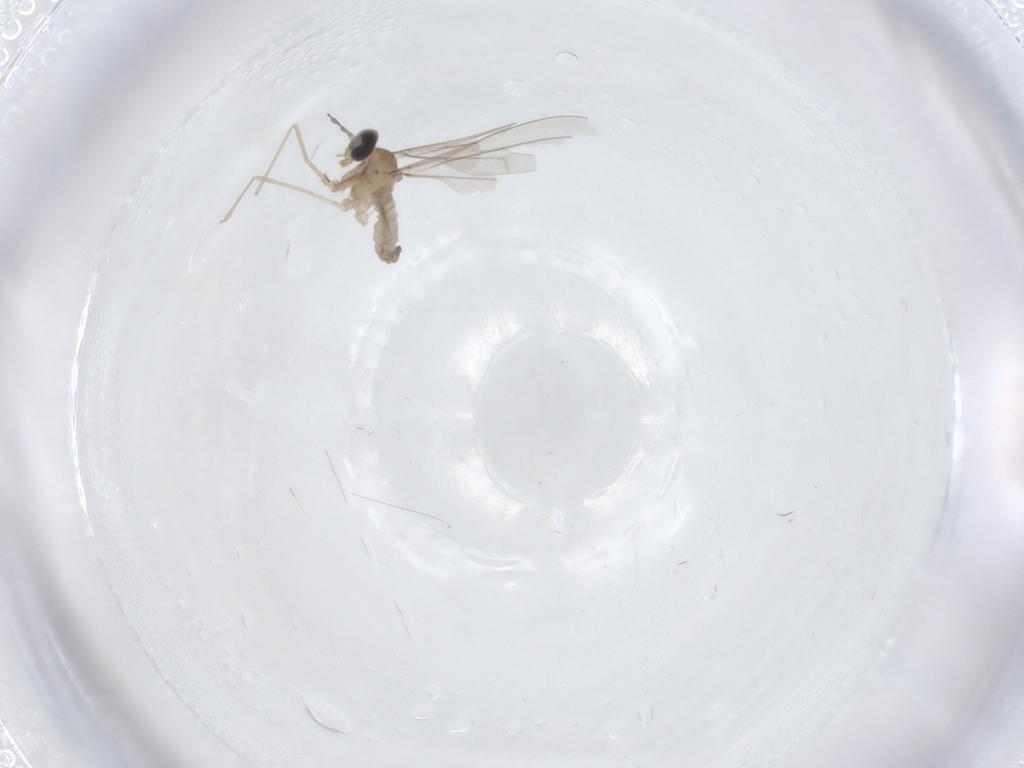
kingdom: Animalia
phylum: Arthropoda
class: Insecta
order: Diptera
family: Cecidomyiidae
